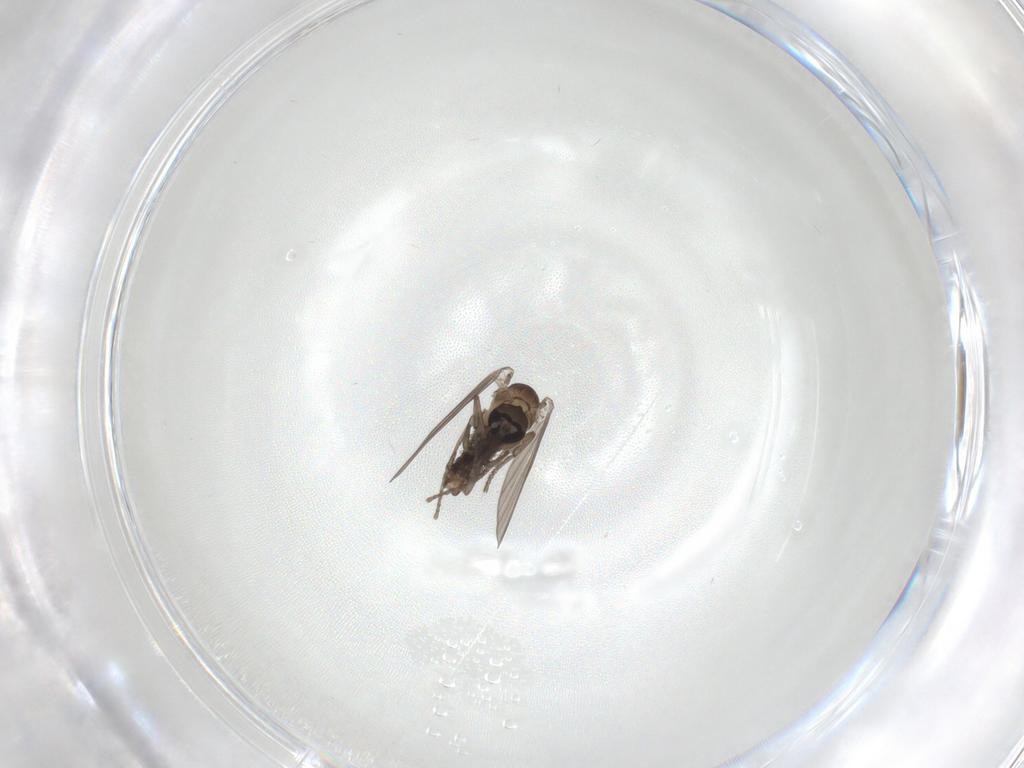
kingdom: Animalia
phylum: Arthropoda
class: Insecta
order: Diptera
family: Psychodidae
